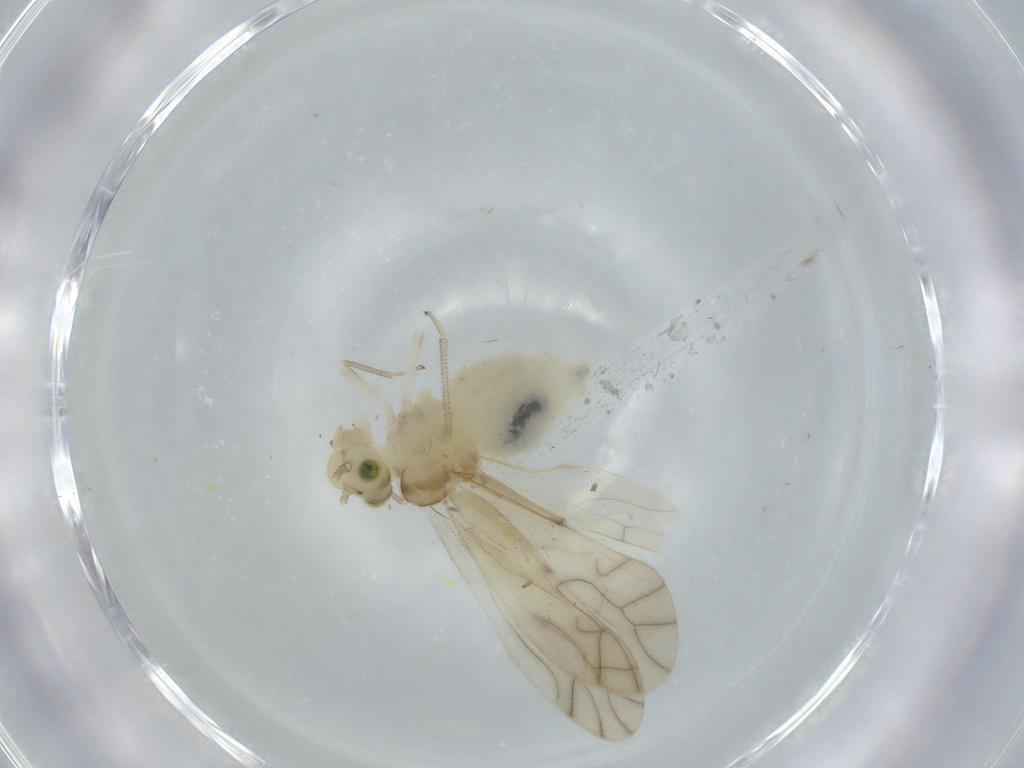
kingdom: Animalia
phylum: Arthropoda
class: Insecta
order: Psocodea
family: Caeciliusidae
